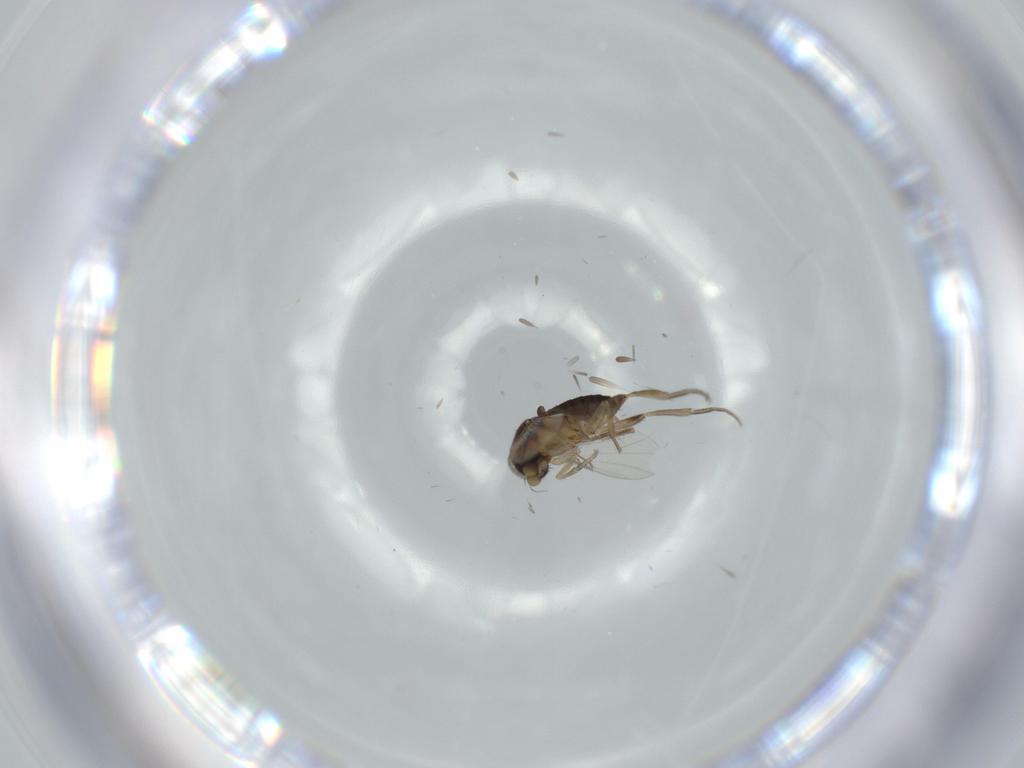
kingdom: Animalia
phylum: Arthropoda
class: Insecta
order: Diptera
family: Phoridae
